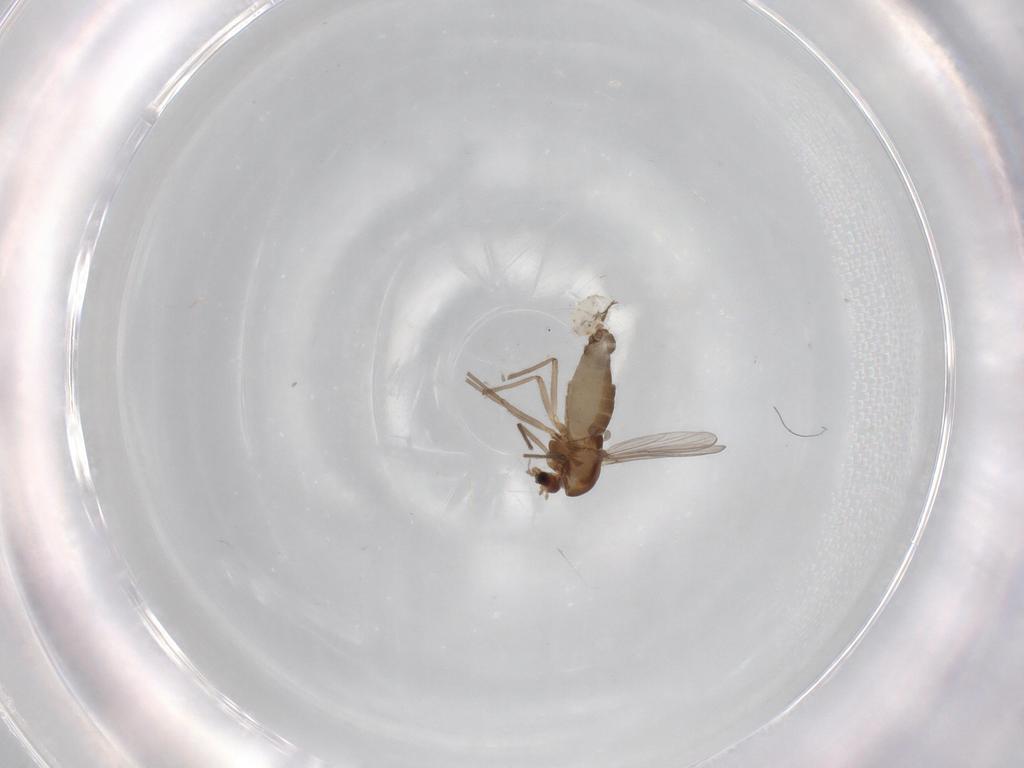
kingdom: Animalia
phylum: Arthropoda
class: Insecta
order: Diptera
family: Chironomidae
